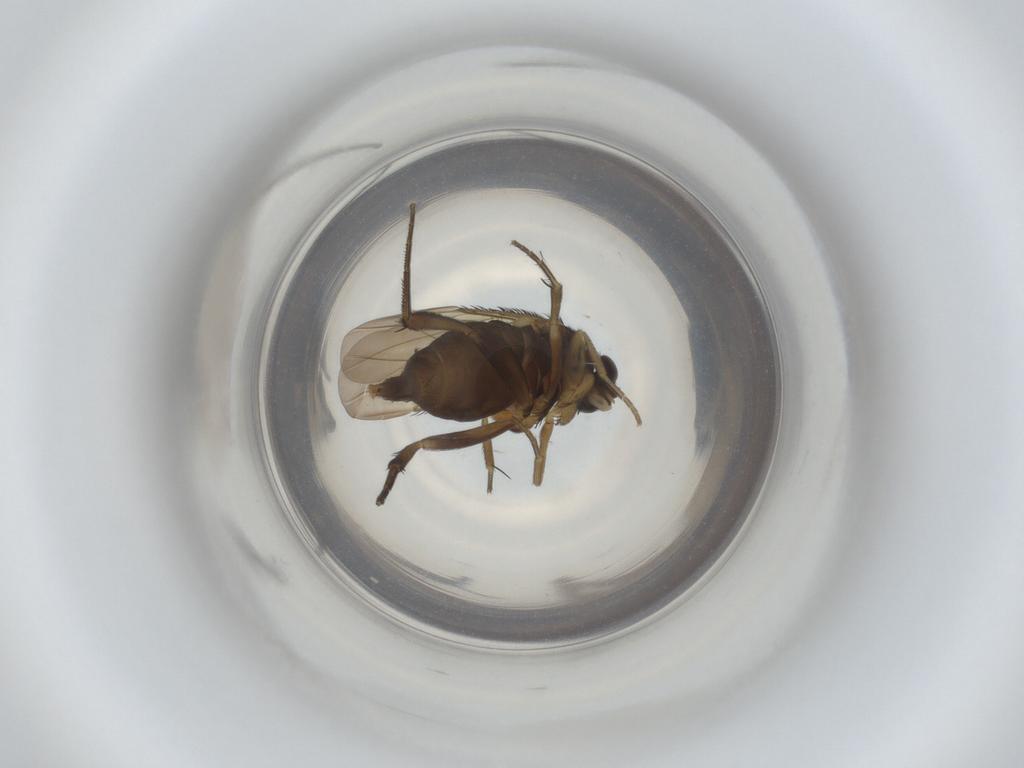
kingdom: Animalia
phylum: Arthropoda
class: Insecta
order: Diptera
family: Phoridae
